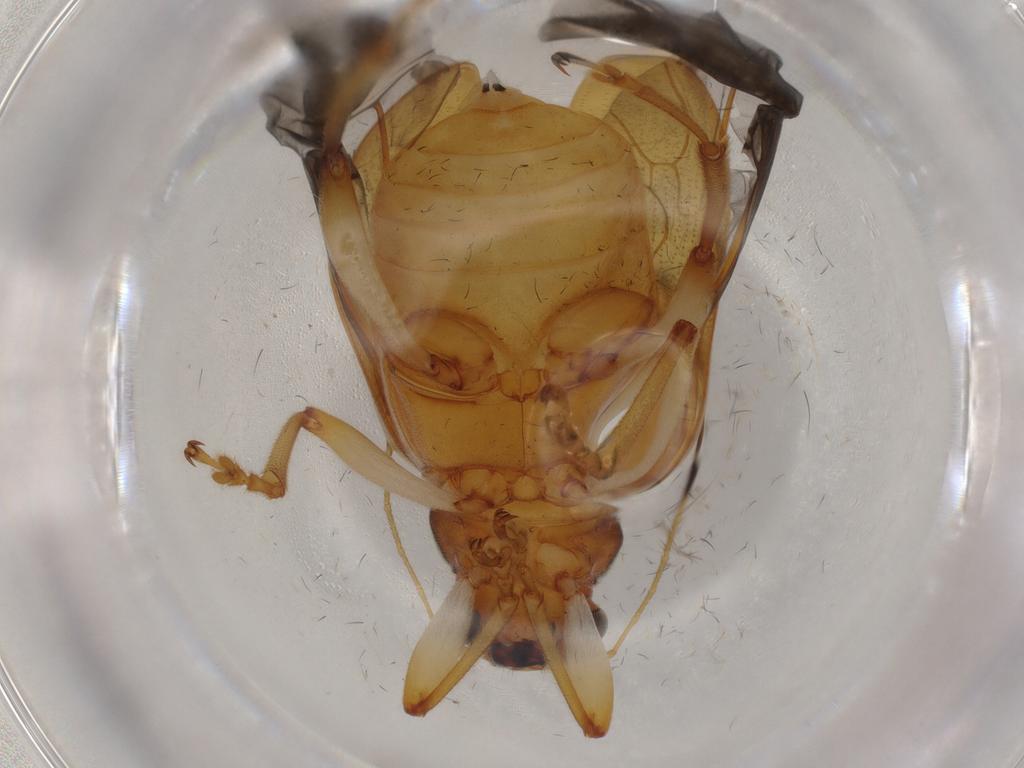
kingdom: Animalia
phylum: Arthropoda
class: Insecta
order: Coleoptera
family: Chrysomelidae
